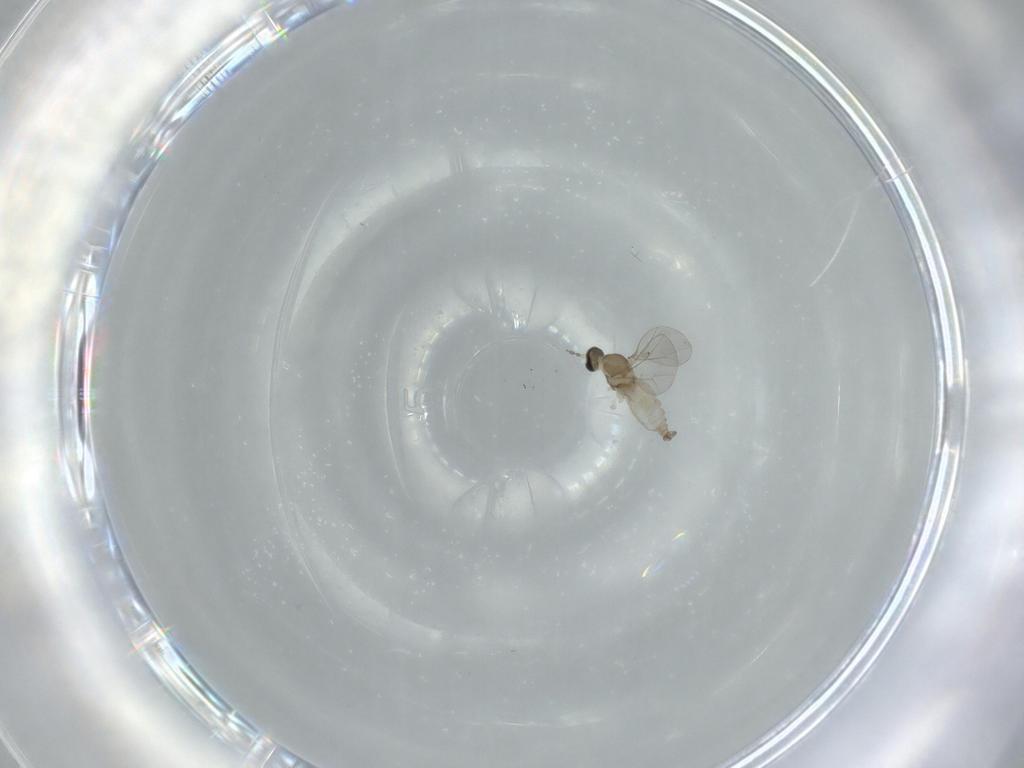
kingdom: Animalia
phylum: Arthropoda
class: Insecta
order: Diptera
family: Cecidomyiidae
